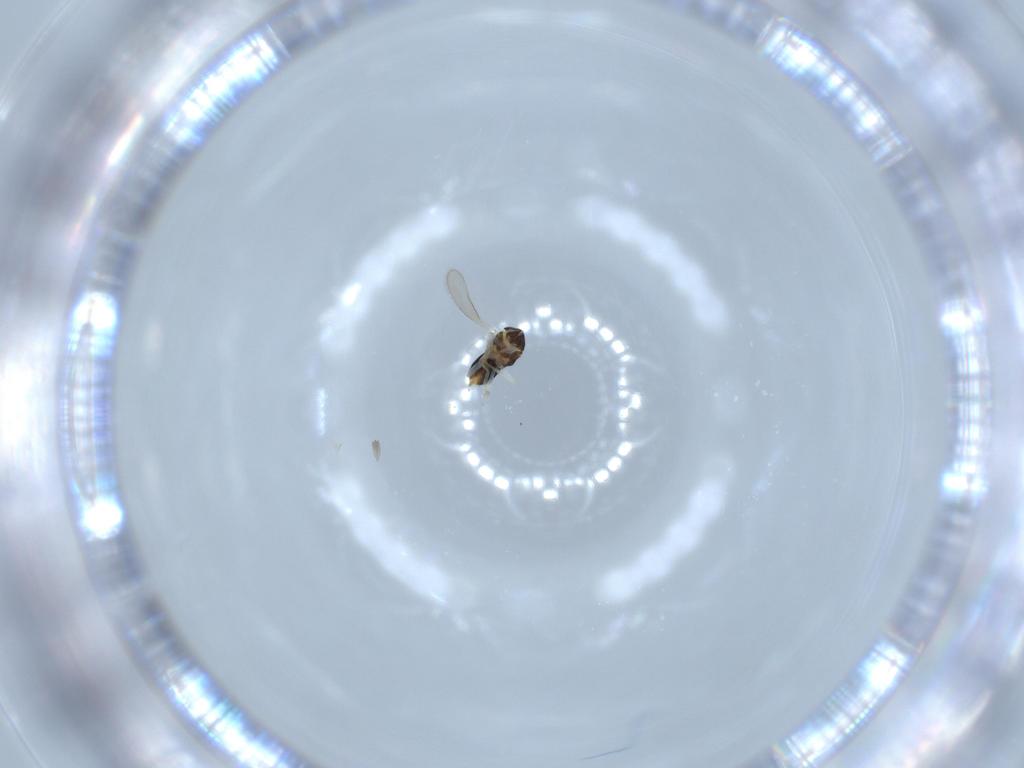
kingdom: Animalia
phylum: Arthropoda
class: Insecta
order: Hymenoptera
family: Aphelinidae
